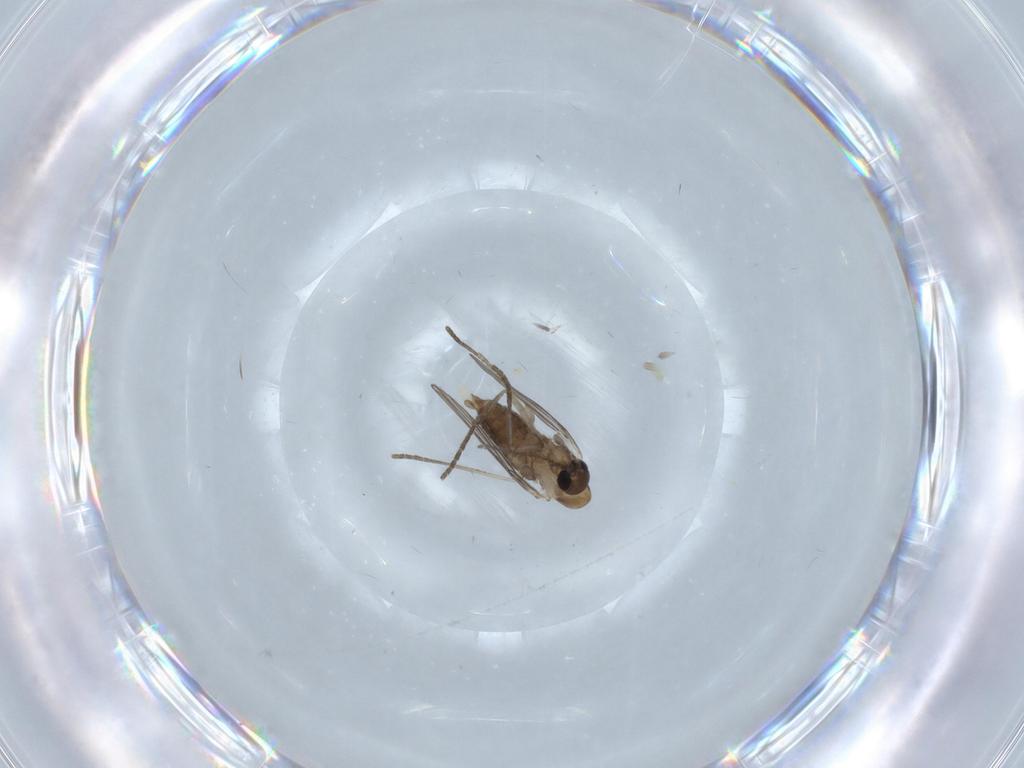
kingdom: Animalia
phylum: Arthropoda
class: Insecta
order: Diptera
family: Psychodidae
